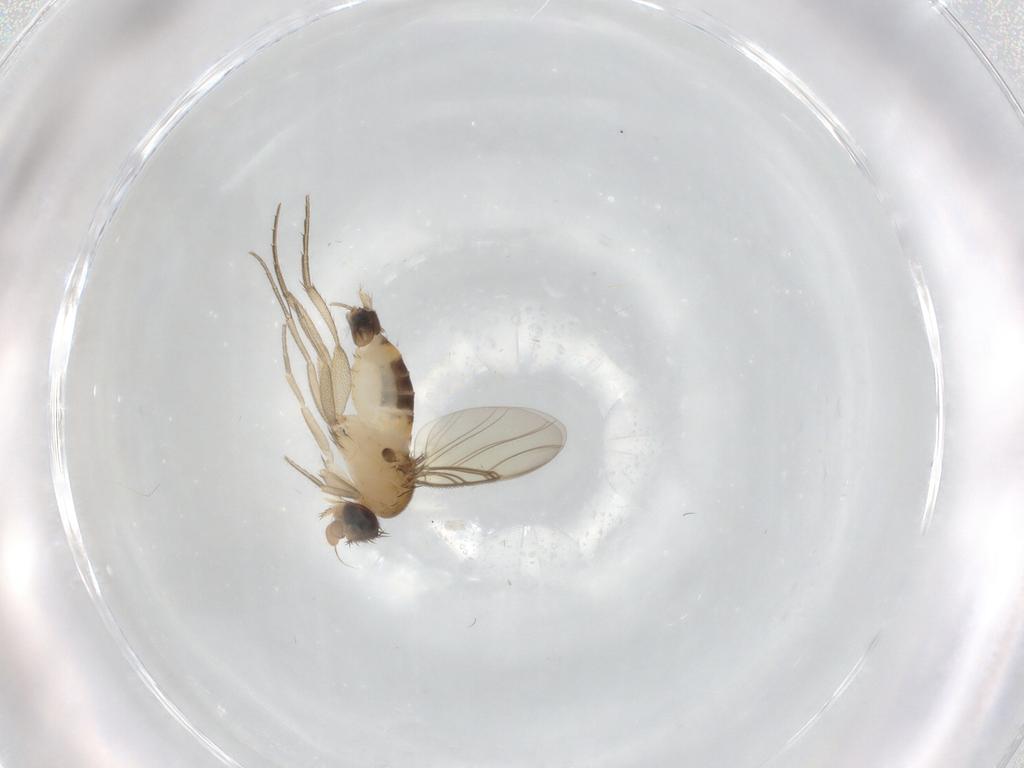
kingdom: Animalia
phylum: Arthropoda
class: Insecta
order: Diptera
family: Phoridae
